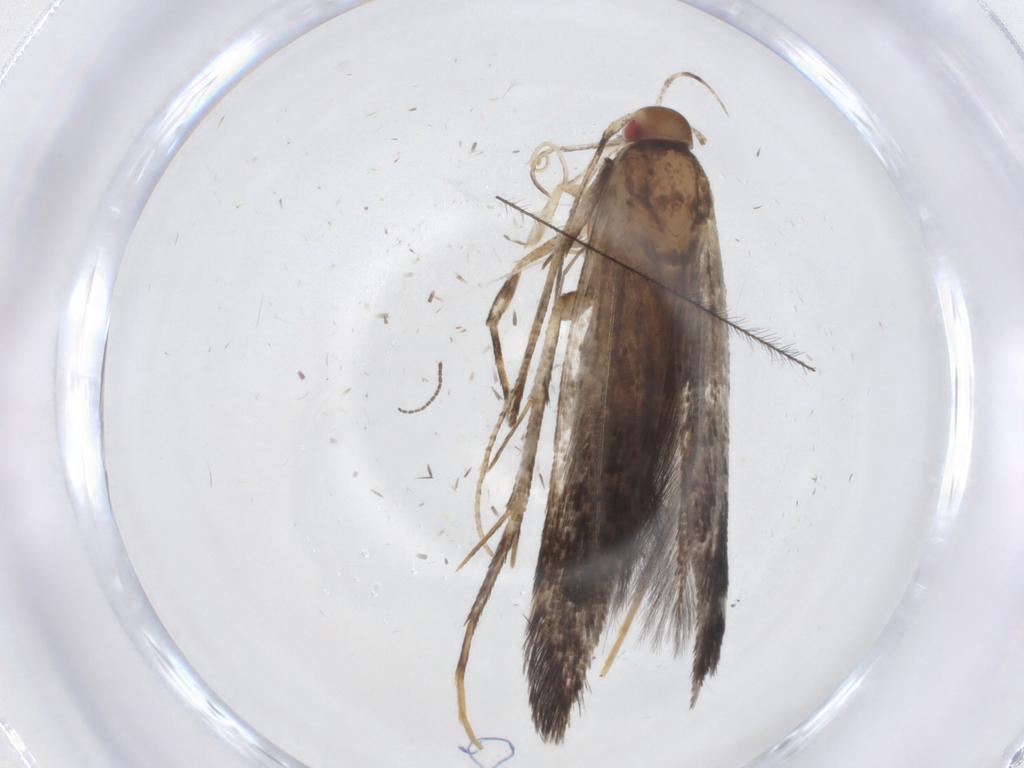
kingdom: Animalia
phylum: Arthropoda
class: Insecta
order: Lepidoptera
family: Cosmopterigidae
